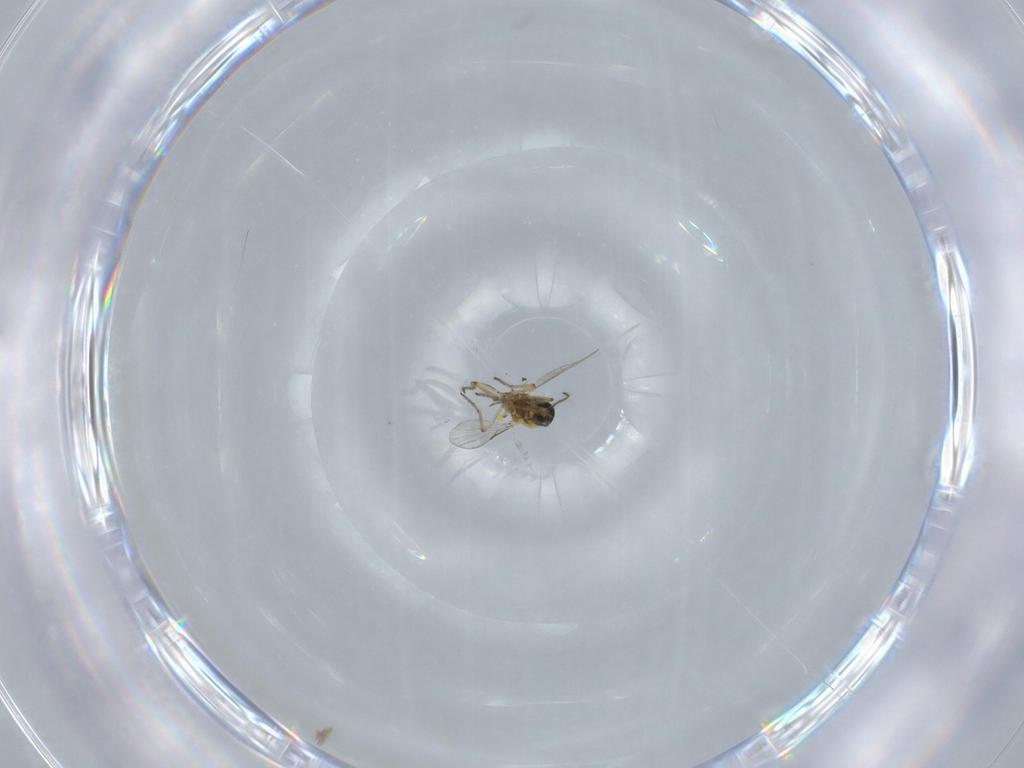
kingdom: Animalia
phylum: Arthropoda
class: Insecta
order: Diptera
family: Ceratopogonidae
